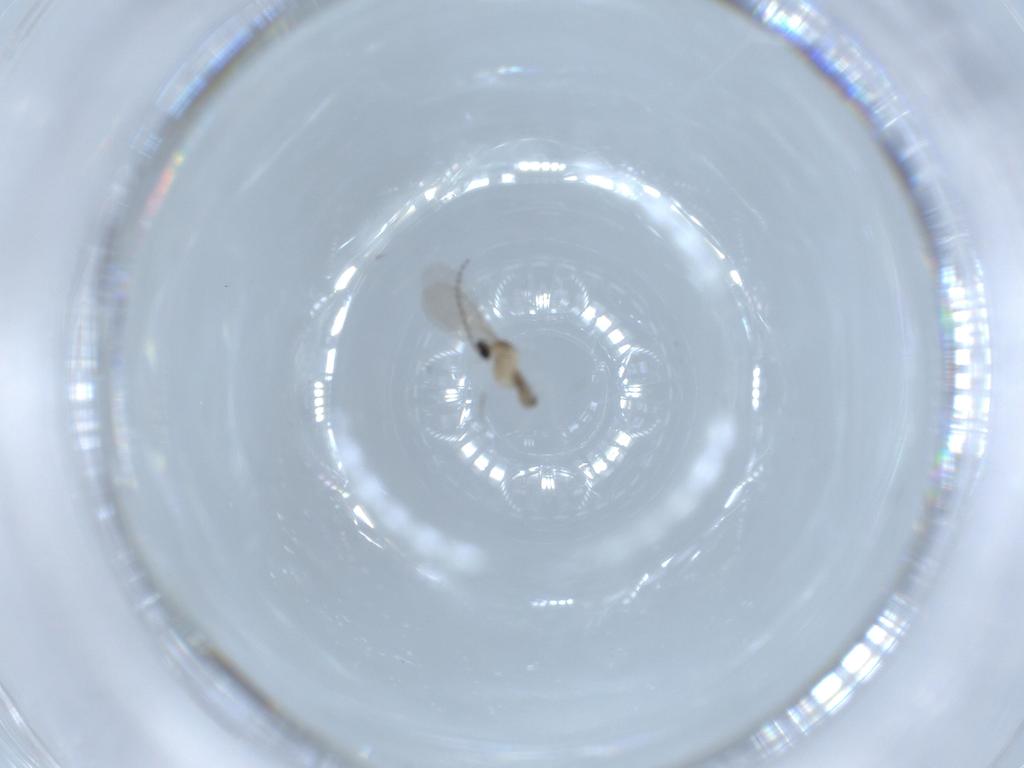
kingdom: Animalia
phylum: Arthropoda
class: Insecta
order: Diptera
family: Cecidomyiidae
